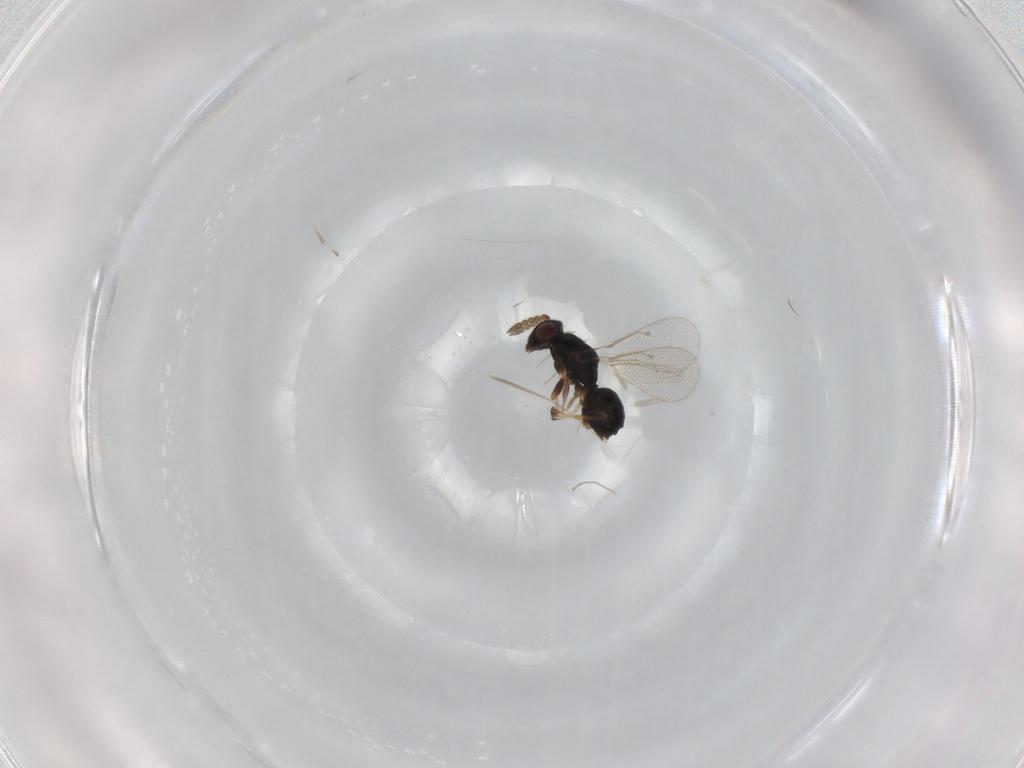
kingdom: Animalia
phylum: Arthropoda
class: Insecta
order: Hymenoptera
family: Eulophidae
